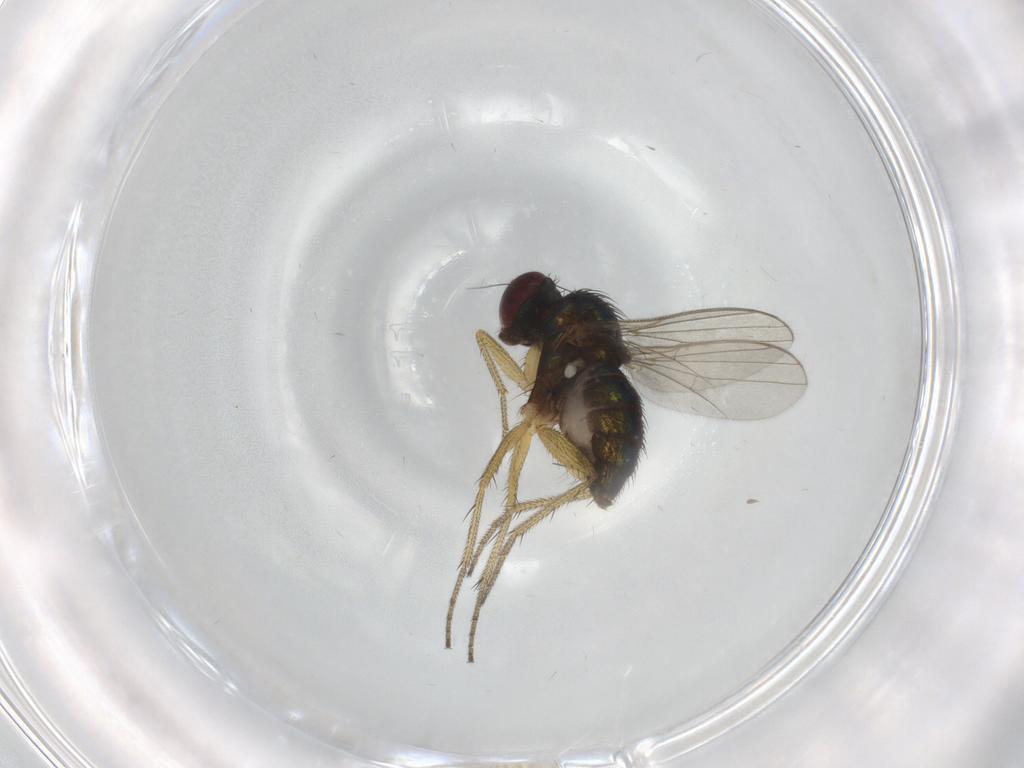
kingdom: Animalia
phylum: Arthropoda
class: Insecta
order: Diptera
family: Dolichopodidae
